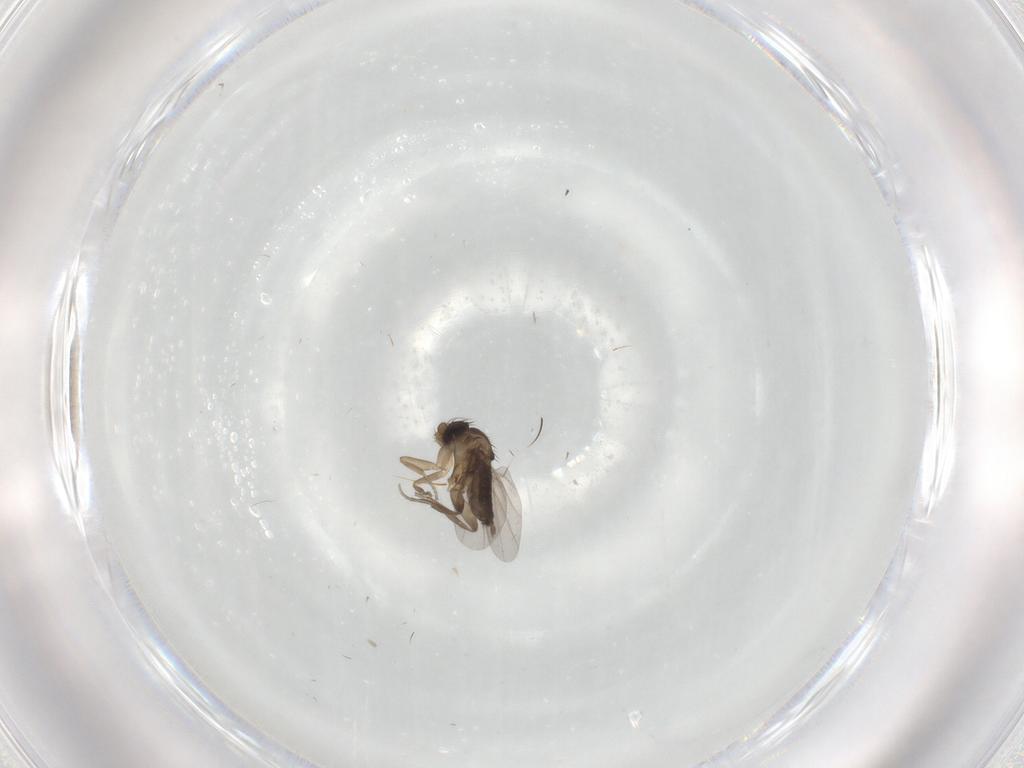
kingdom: Animalia
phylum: Arthropoda
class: Insecta
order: Diptera
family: Phoridae
